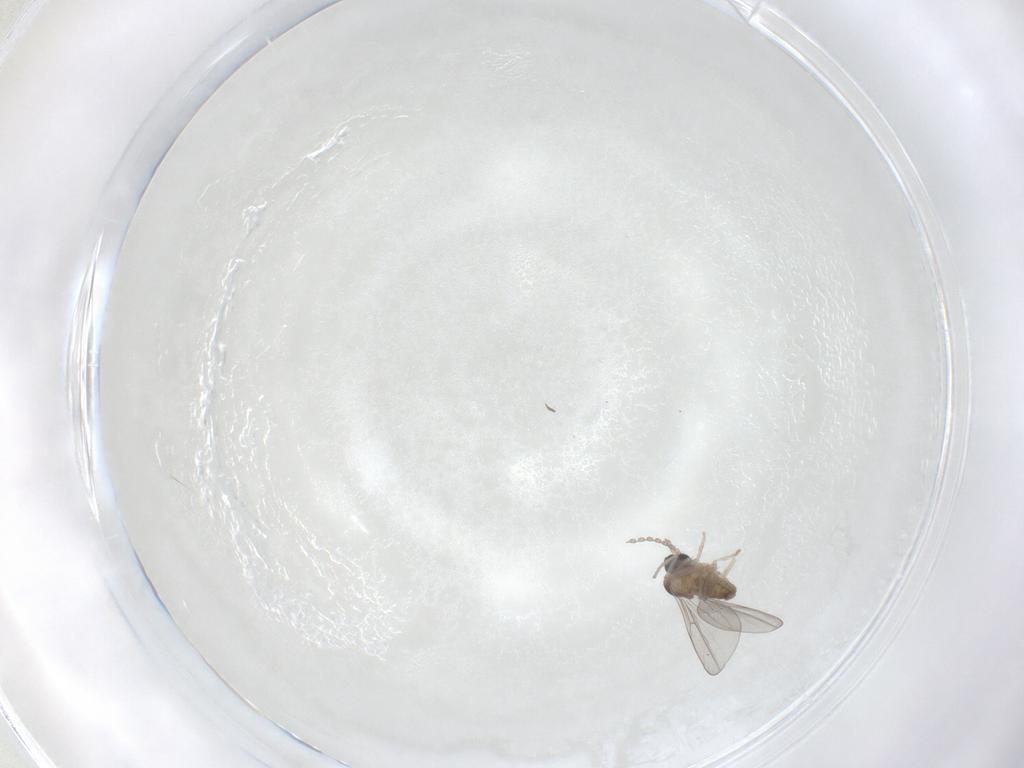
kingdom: Animalia
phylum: Arthropoda
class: Insecta
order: Diptera
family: Cecidomyiidae
